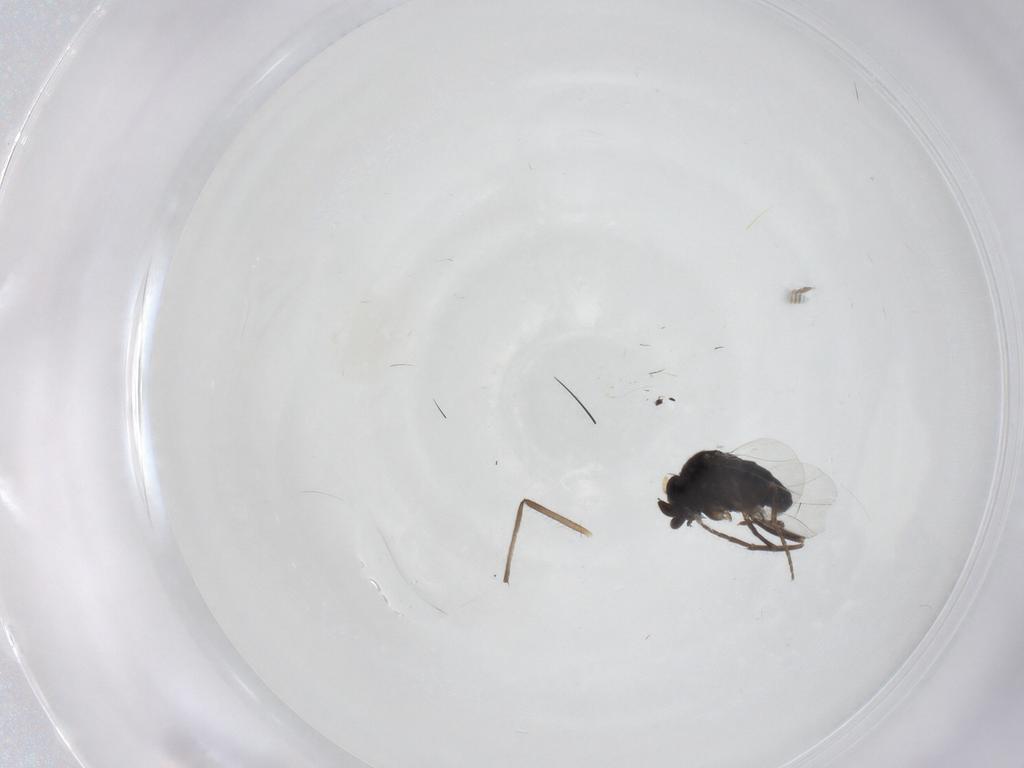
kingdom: Animalia
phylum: Arthropoda
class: Insecta
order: Diptera
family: Phoridae
